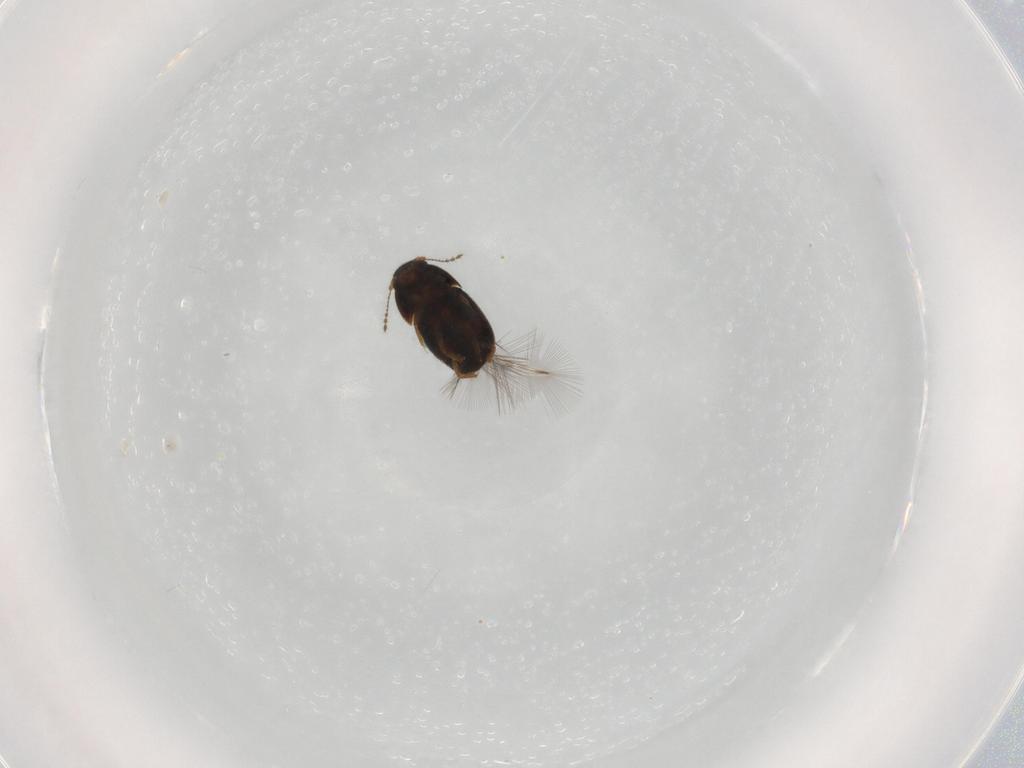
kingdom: Animalia
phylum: Arthropoda
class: Insecta
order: Coleoptera
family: Ptiliidae
